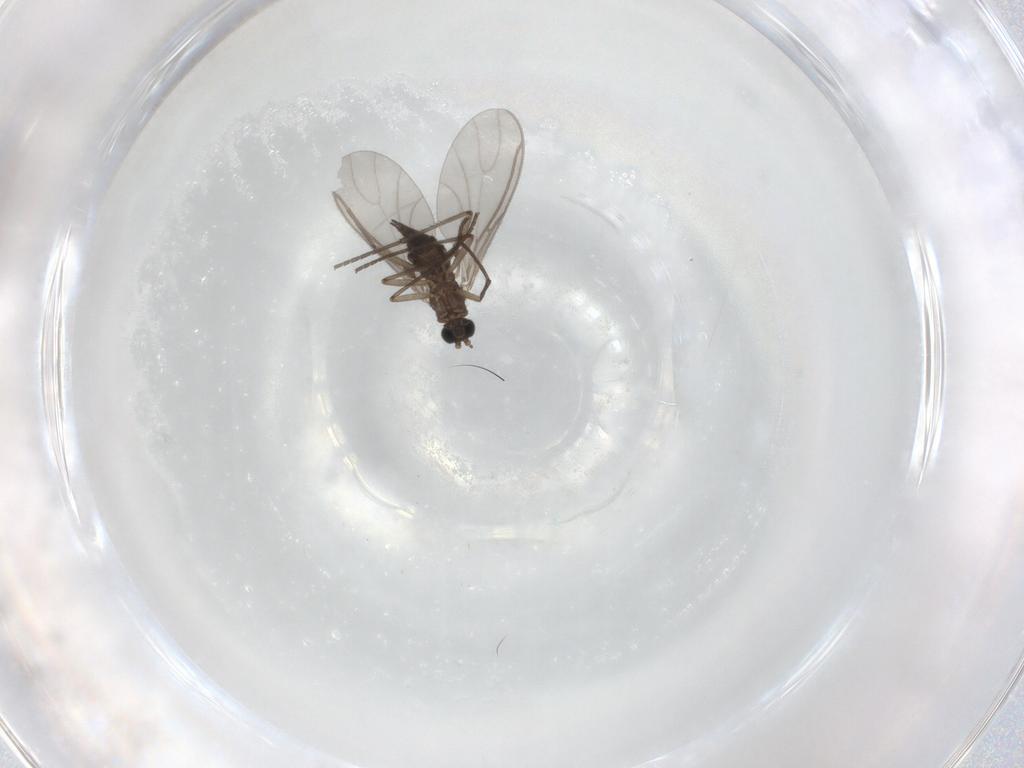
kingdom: Animalia
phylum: Arthropoda
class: Insecta
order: Diptera
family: Sciaridae
